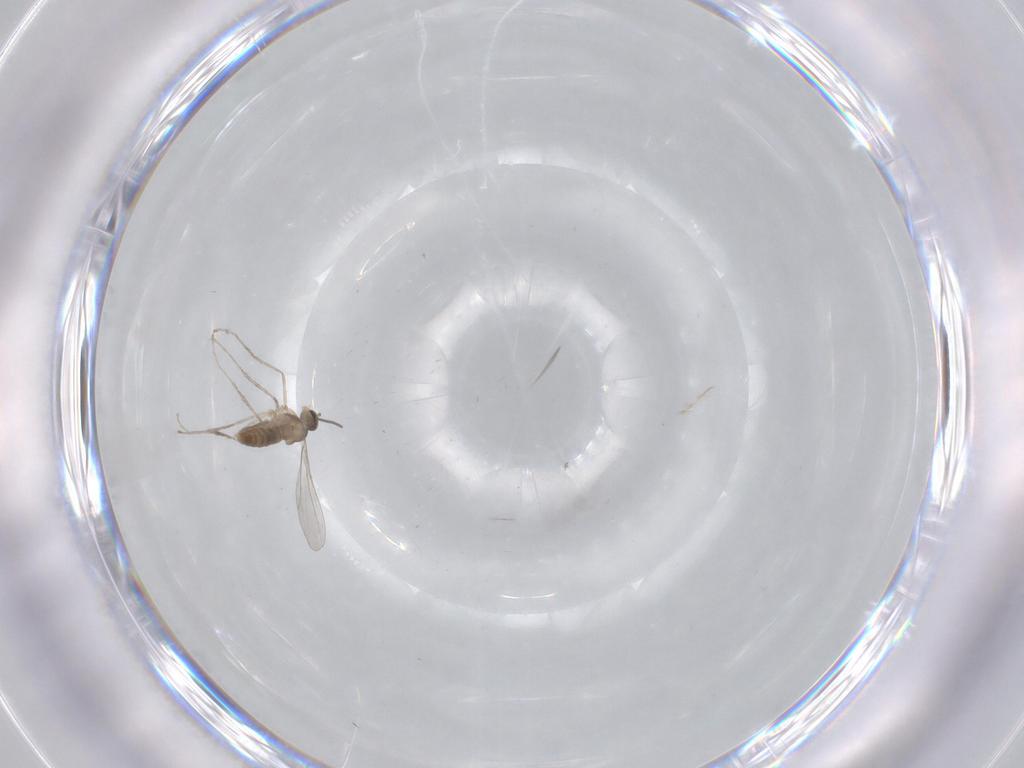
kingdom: Animalia
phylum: Arthropoda
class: Insecta
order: Diptera
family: Chironomidae
